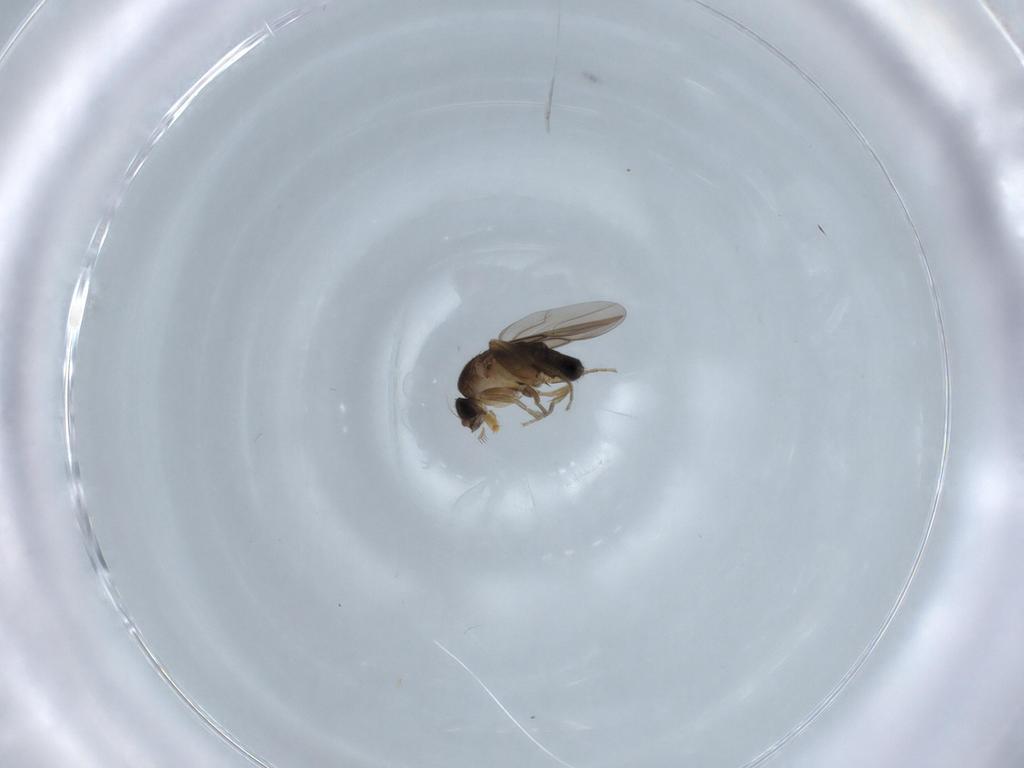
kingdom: Animalia
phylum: Arthropoda
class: Insecta
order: Diptera
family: Phoridae
